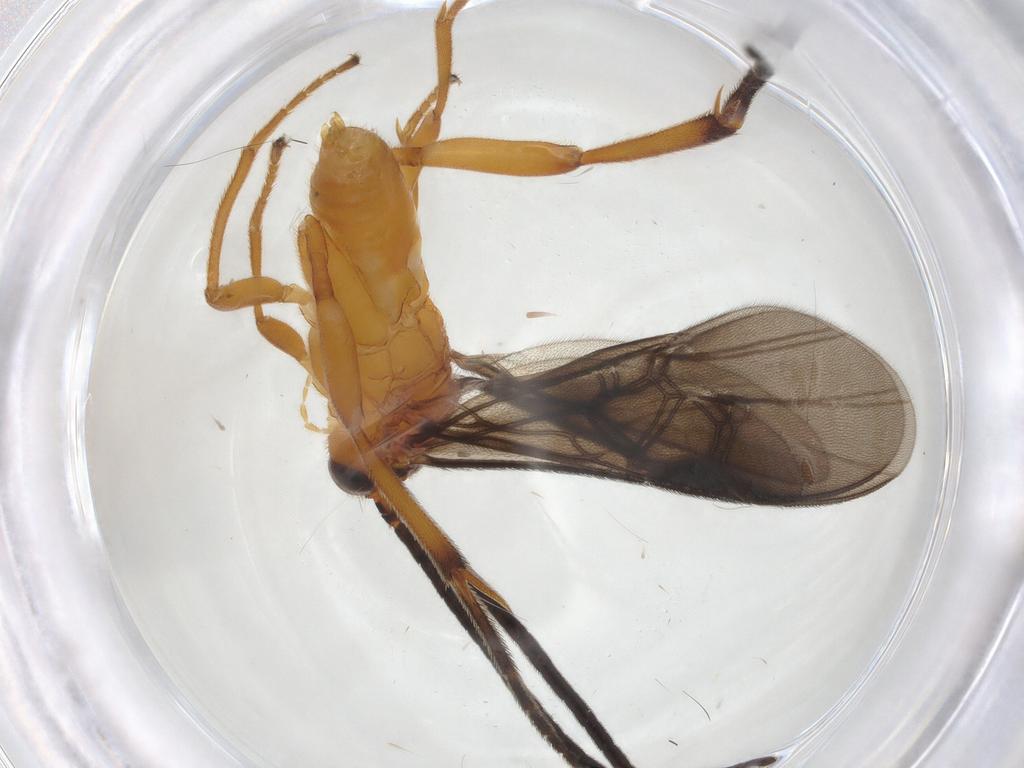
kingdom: Animalia
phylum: Arthropoda
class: Insecta
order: Hymenoptera
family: Braconidae
